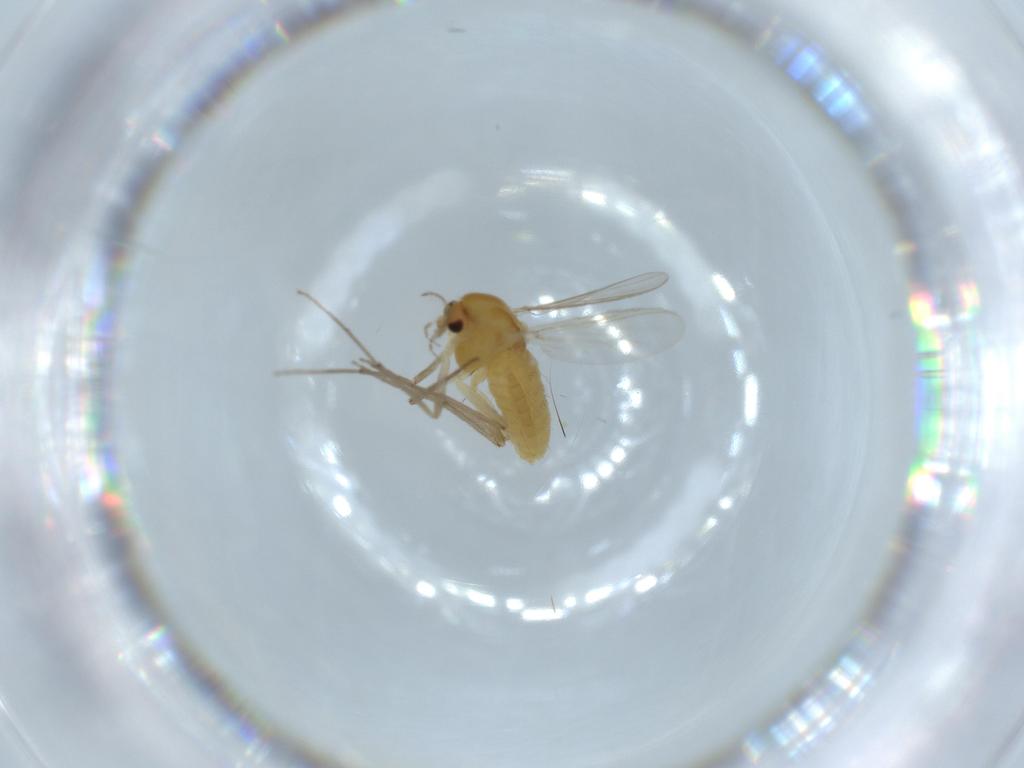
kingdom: Animalia
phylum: Arthropoda
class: Insecta
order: Diptera
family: Chironomidae
